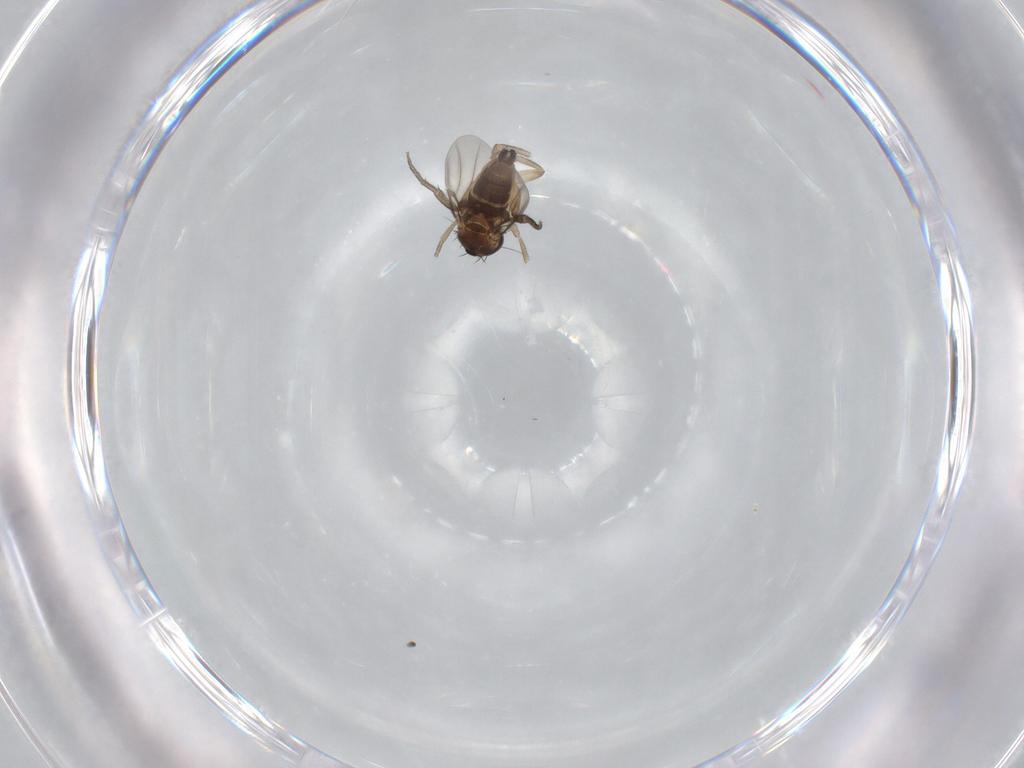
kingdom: Animalia
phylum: Arthropoda
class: Insecta
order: Diptera
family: Phoridae
